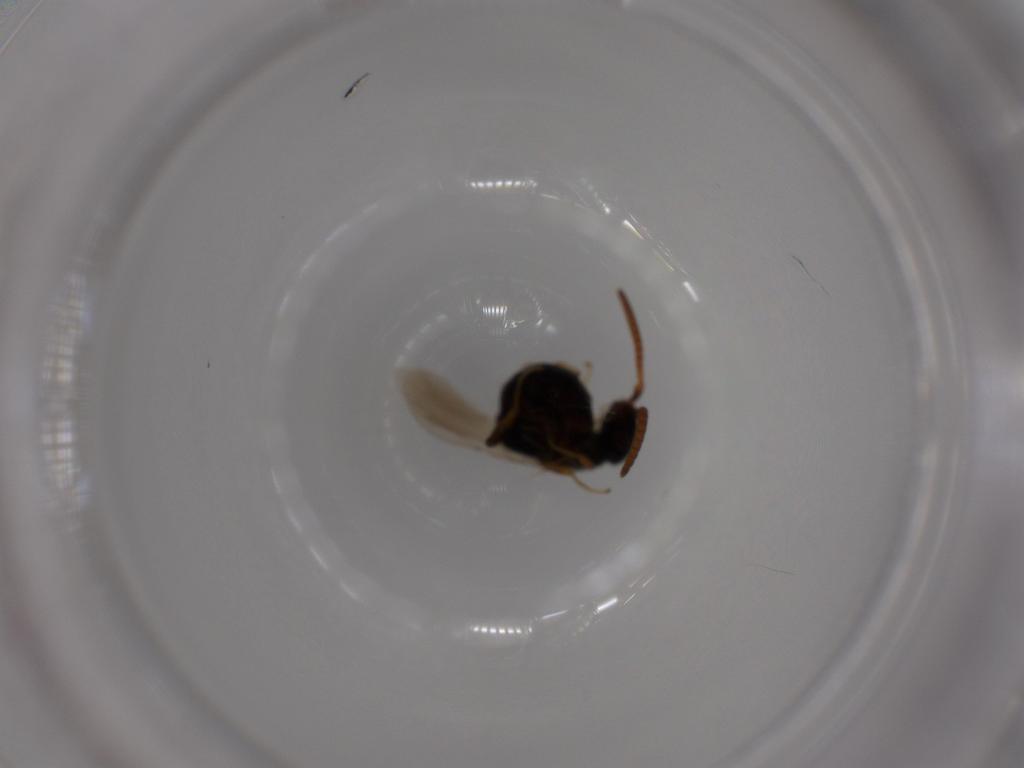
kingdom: Animalia
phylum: Arthropoda
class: Insecta
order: Hymenoptera
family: Bethylidae
